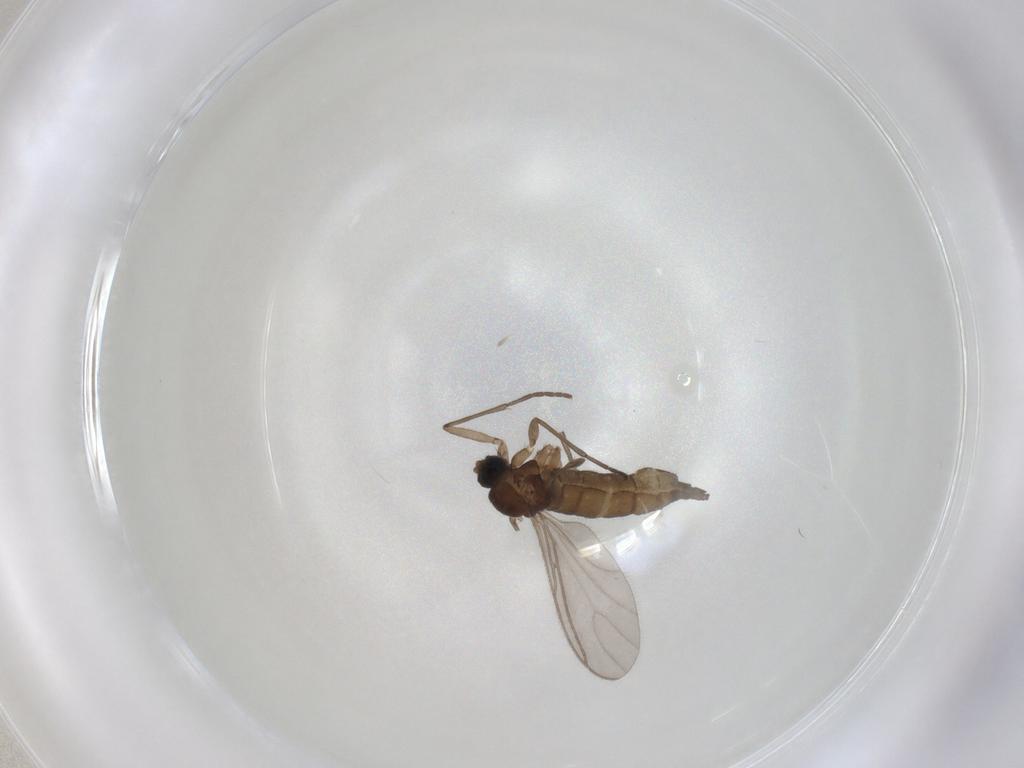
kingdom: Animalia
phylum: Arthropoda
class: Insecta
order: Diptera
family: Sciaridae
